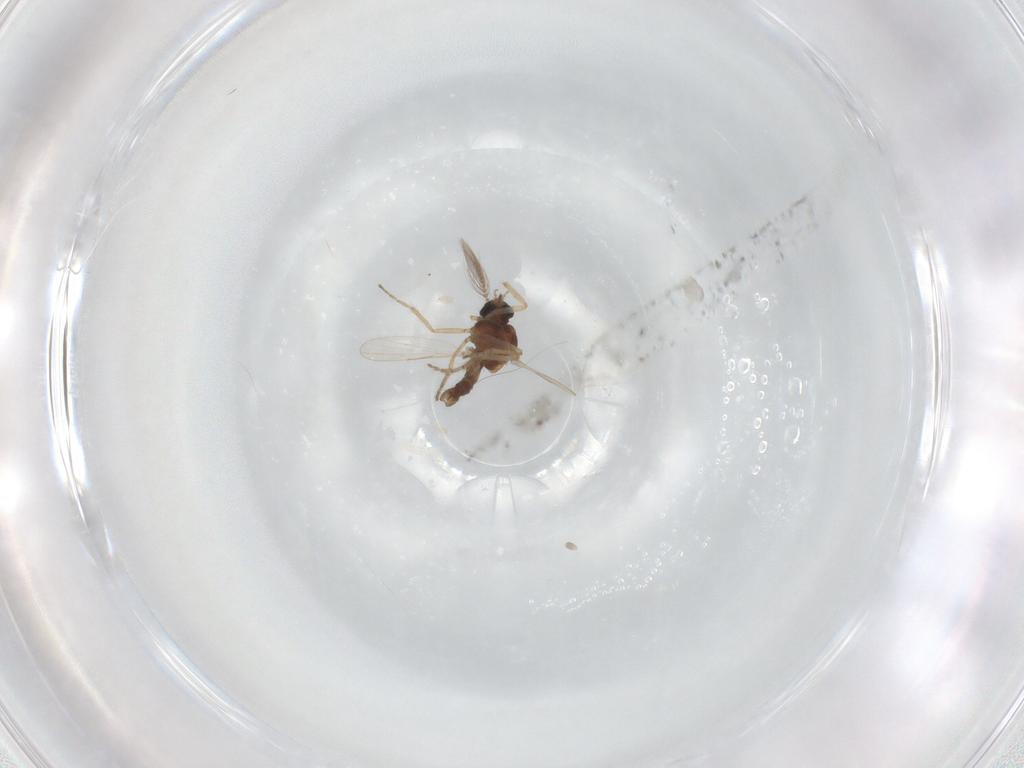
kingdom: Animalia
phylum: Arthropoda
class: Insecta
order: Diptera
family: Ceratopogonidae
